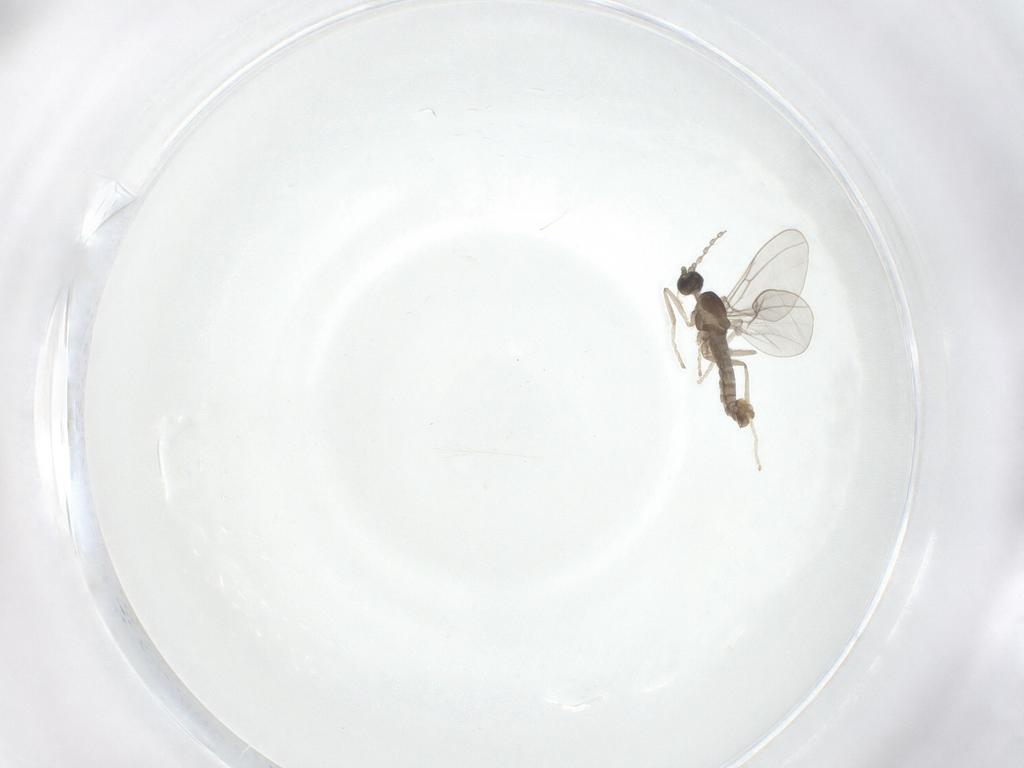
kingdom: Animalia
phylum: Arthropoda
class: Insecta
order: Diptera
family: Cecidomyiidae
